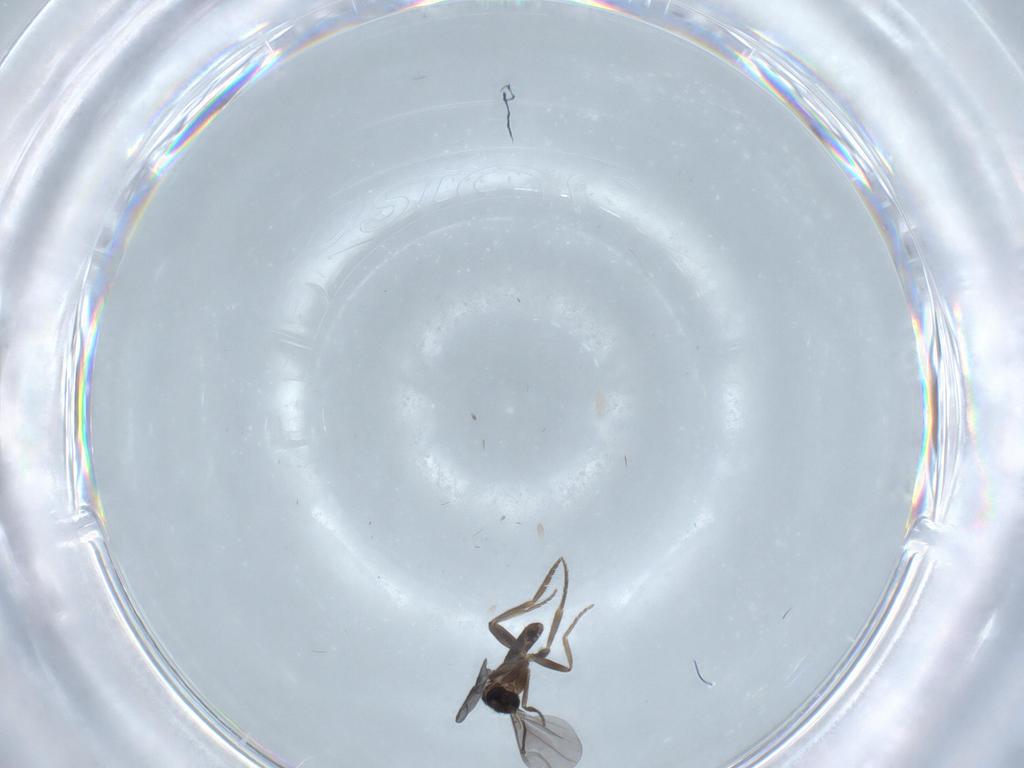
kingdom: Animalia
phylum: Arthropoda
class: Insecta
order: Diptera
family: Phoridae
